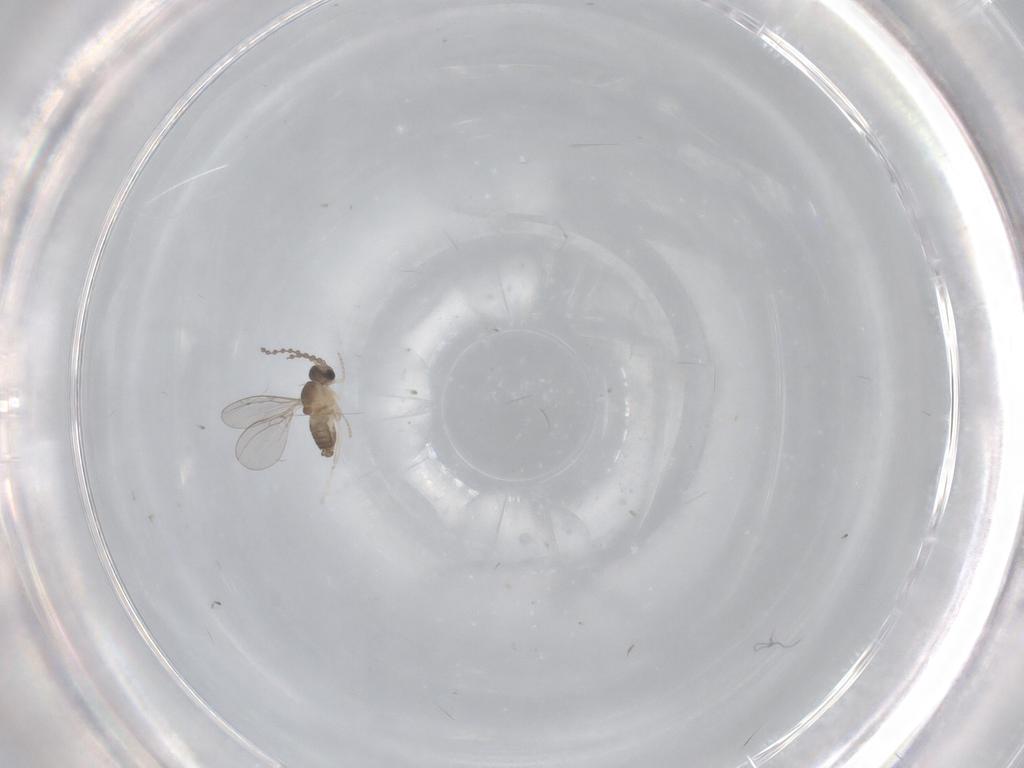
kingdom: Animalia
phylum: Arthropoda
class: Insecta
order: Diptera
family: Cecidomyiidae
